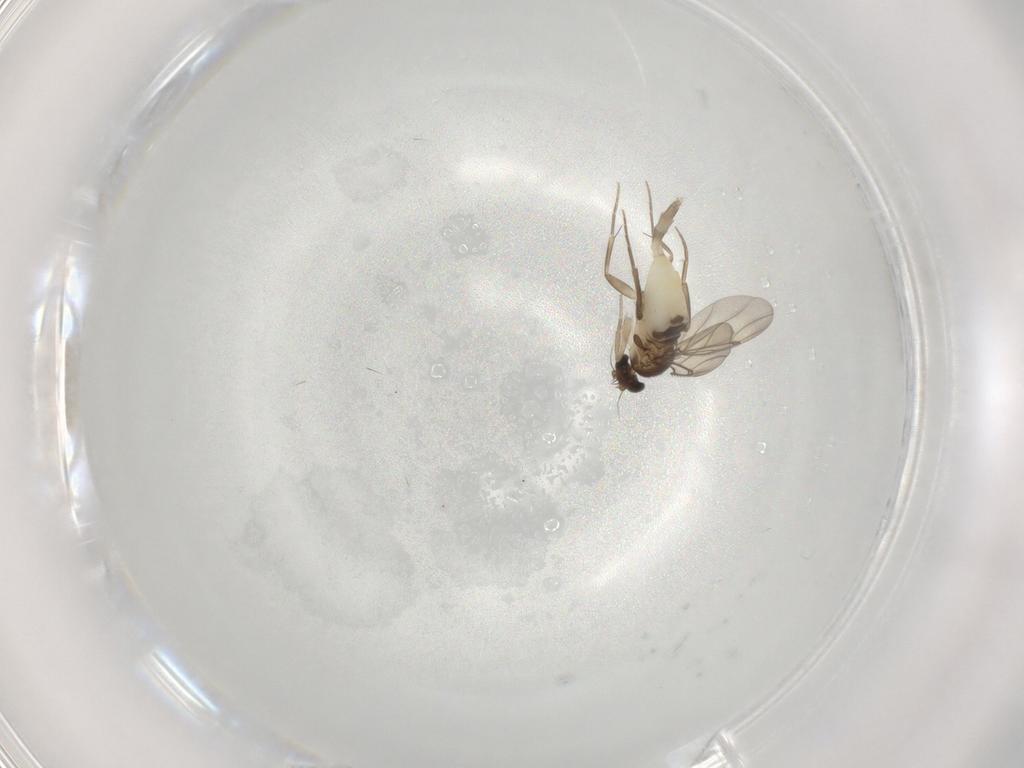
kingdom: Animalia
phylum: Arthropoda
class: Insecta
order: Diptera
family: Phoridae
